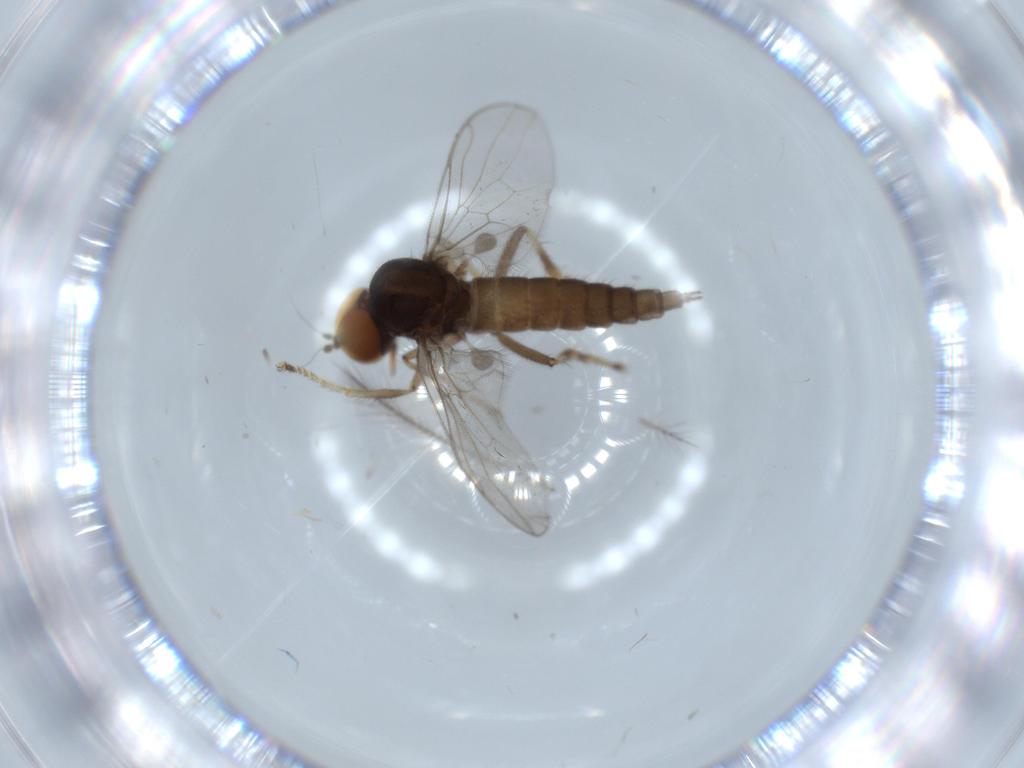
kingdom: Animalia
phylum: Arthropoda
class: Insecta
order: Diptera
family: Hybotidae
